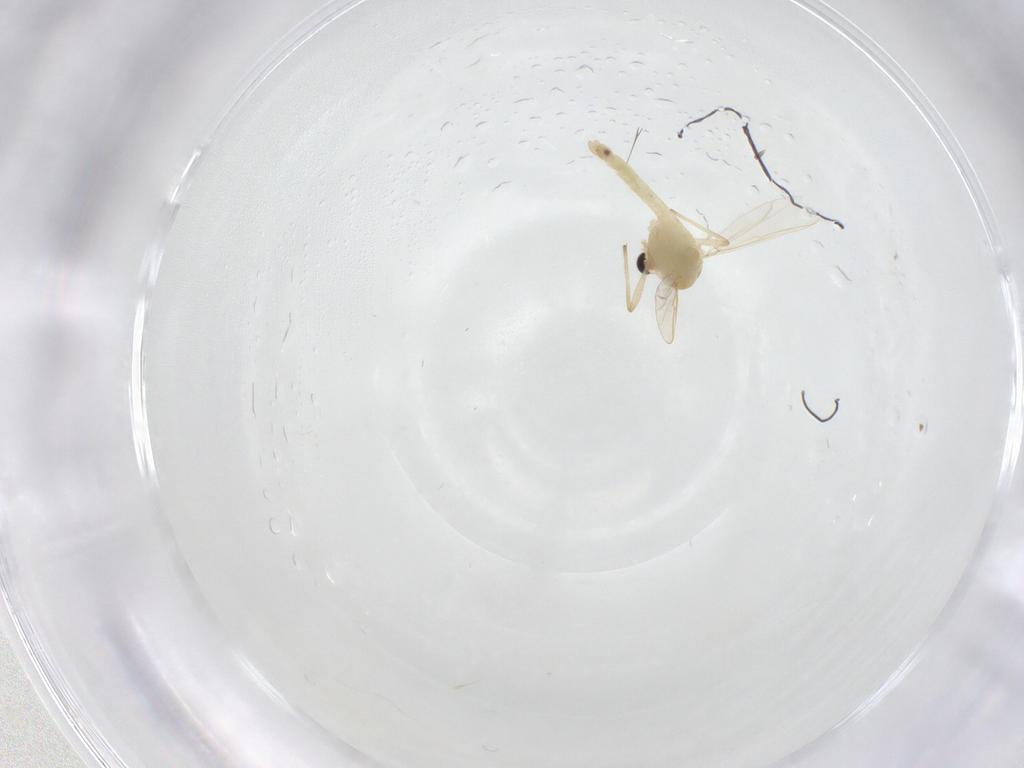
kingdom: Animalia
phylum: Arthropoda
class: Insecta
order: Diptera
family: Chironomidae
